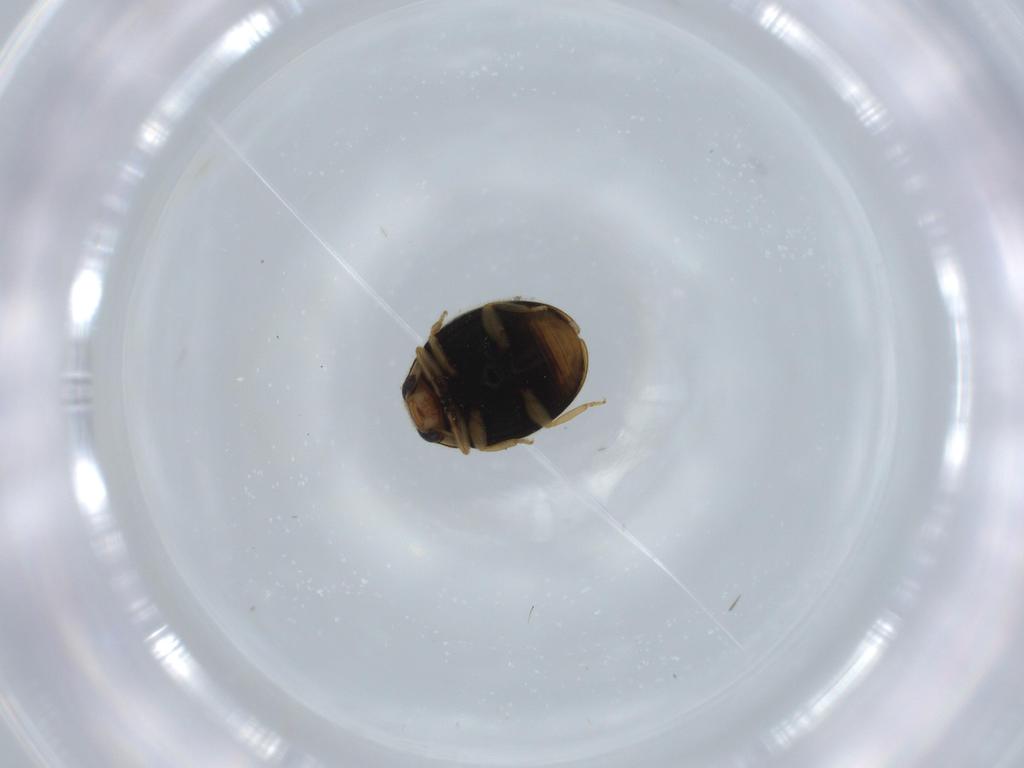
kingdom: Animalia
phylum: Arthropoda
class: Insecta
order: Coleoptera
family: Coccinellidae
